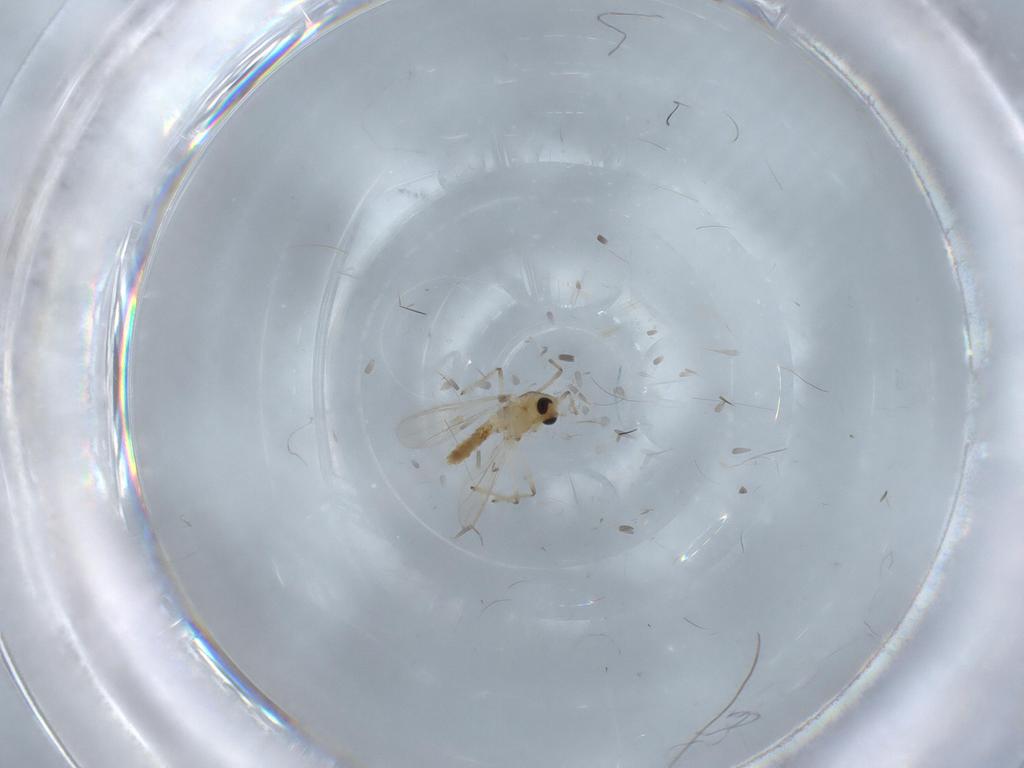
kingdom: Animalia
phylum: Arthropoda
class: Insecta
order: Diptera
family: Chironomidae
